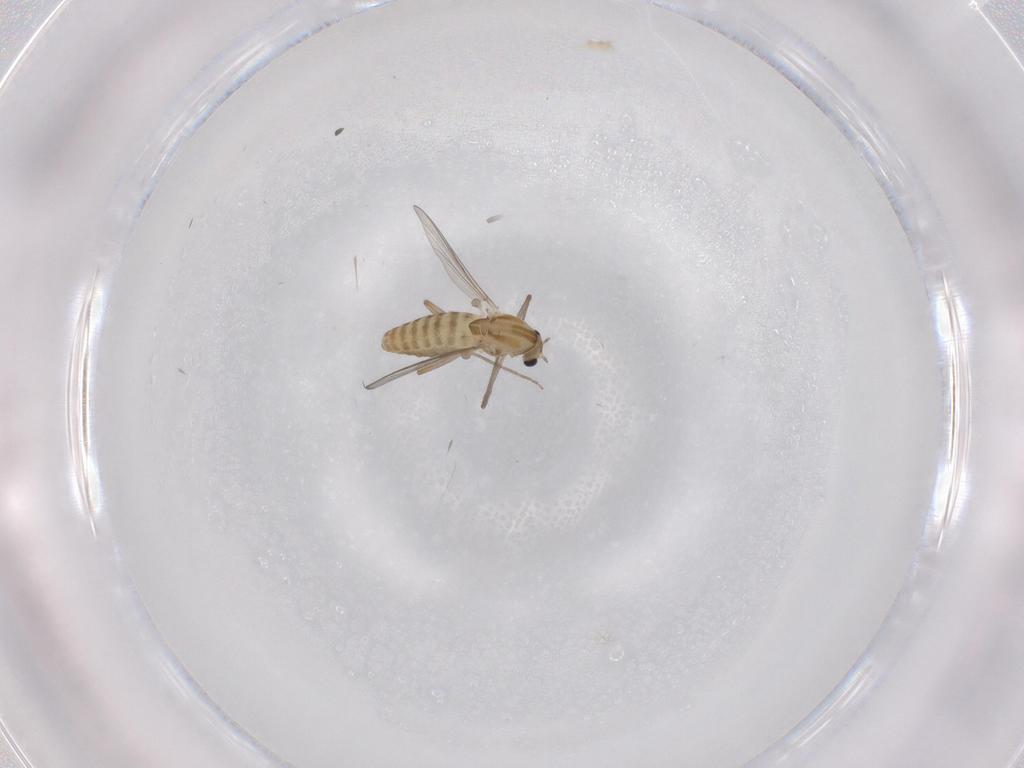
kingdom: Animalia
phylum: Arthropoda
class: Insecta
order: Diptera
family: Chironomidae
